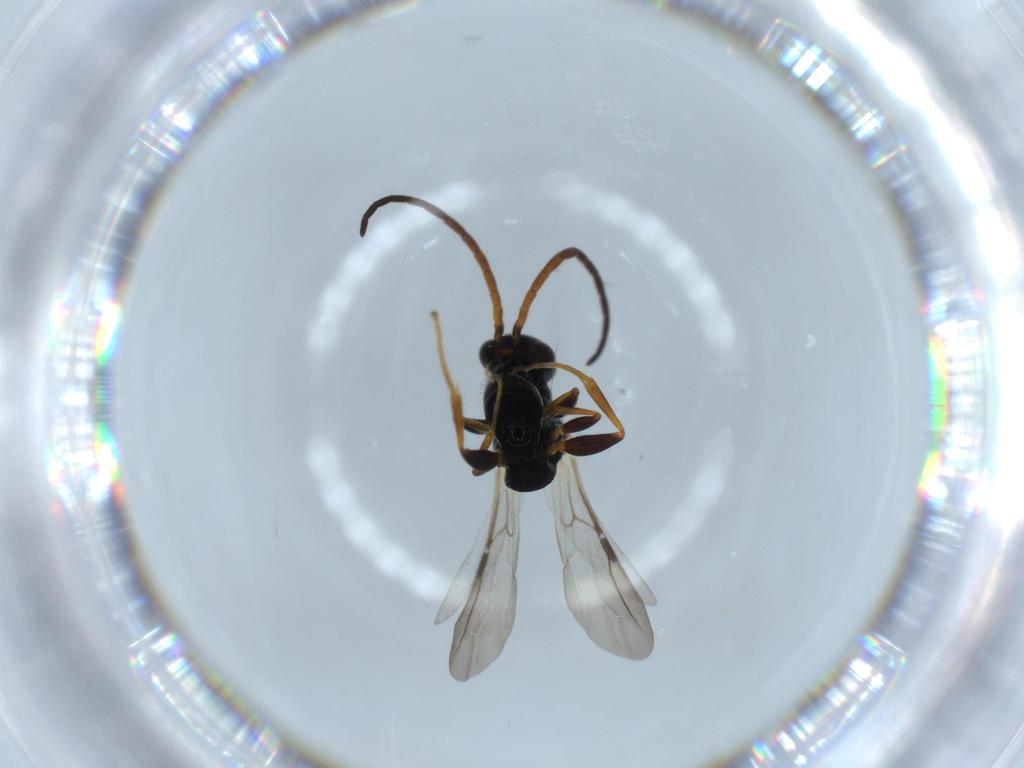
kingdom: Animalia
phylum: Arthropoda
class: Insecta
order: Hymenoptera
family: Bethylidae
